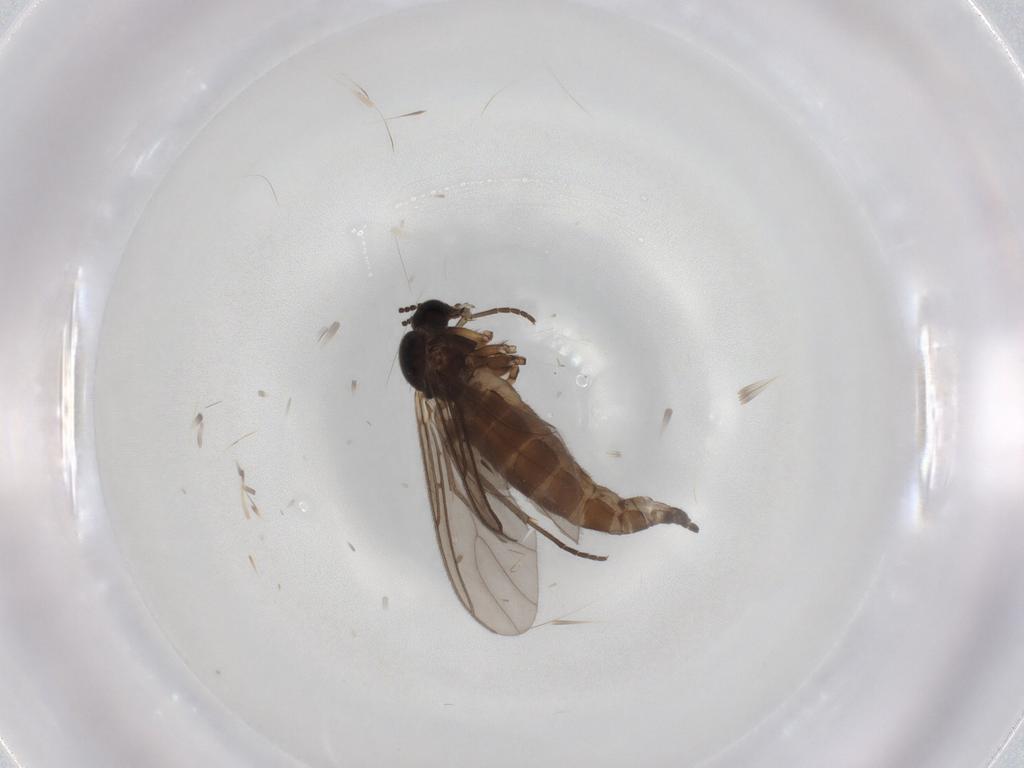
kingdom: Animalia
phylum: Arthropoda
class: Insecta
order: Diptera
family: Sciaridae
